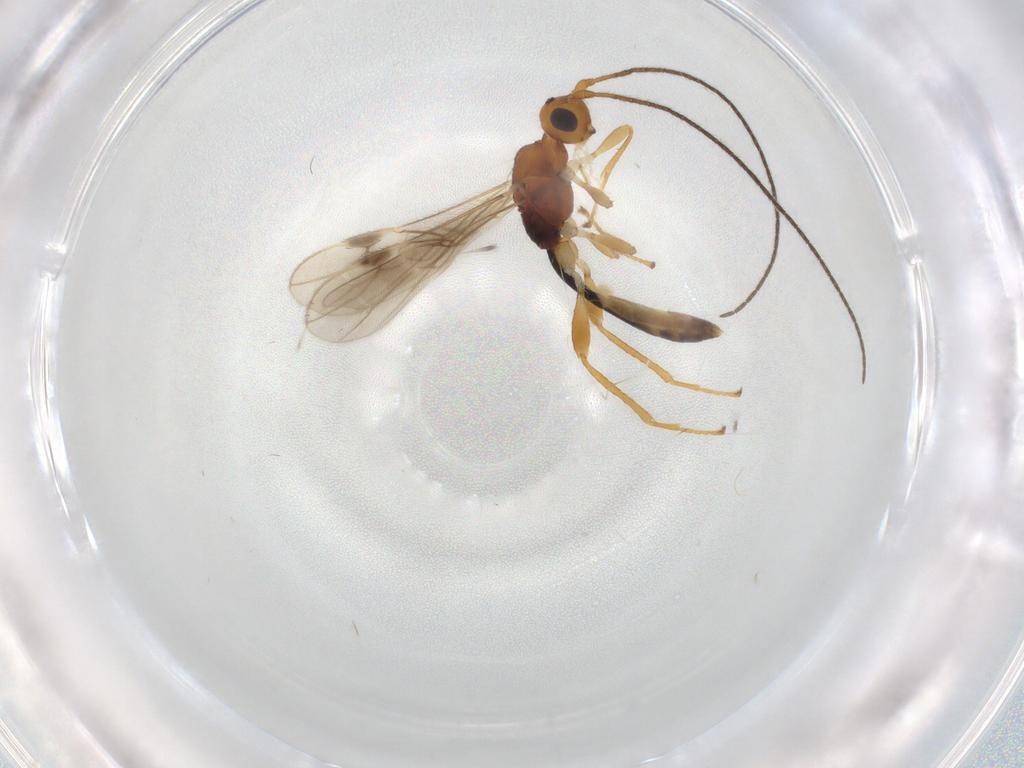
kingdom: Animalia
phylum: Arthropoda
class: Insecta
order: Hymenoptera
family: Braconidae
